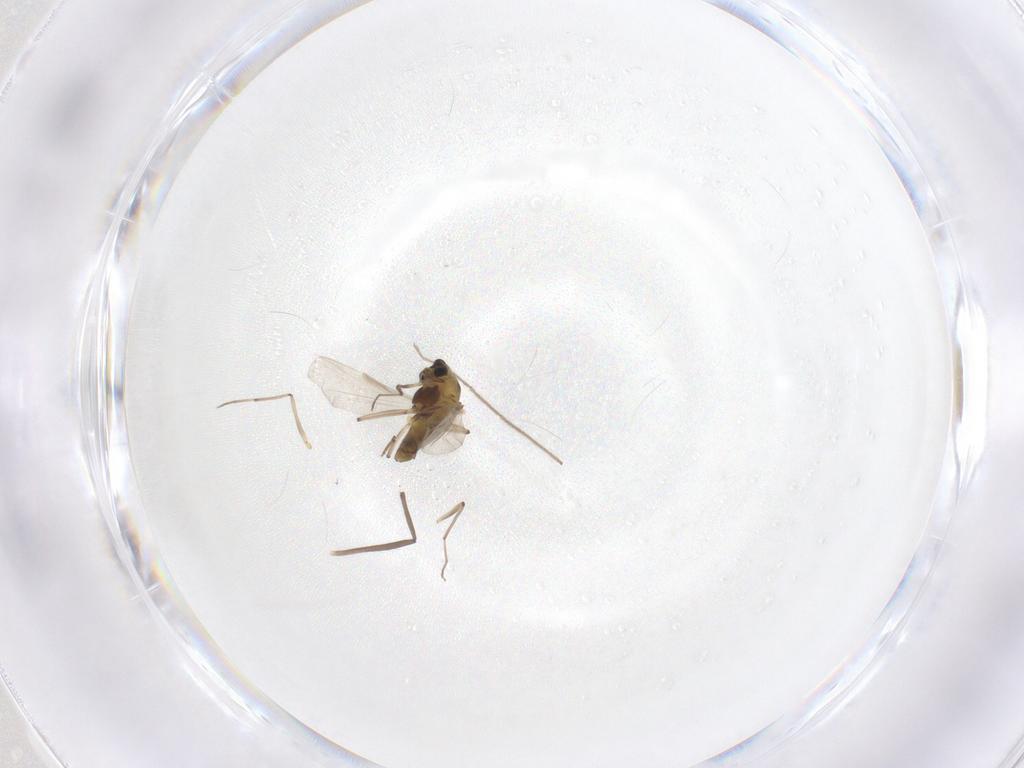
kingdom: Animalia
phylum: Arthropoda
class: Insecta
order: Diptera
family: Chironomidae
